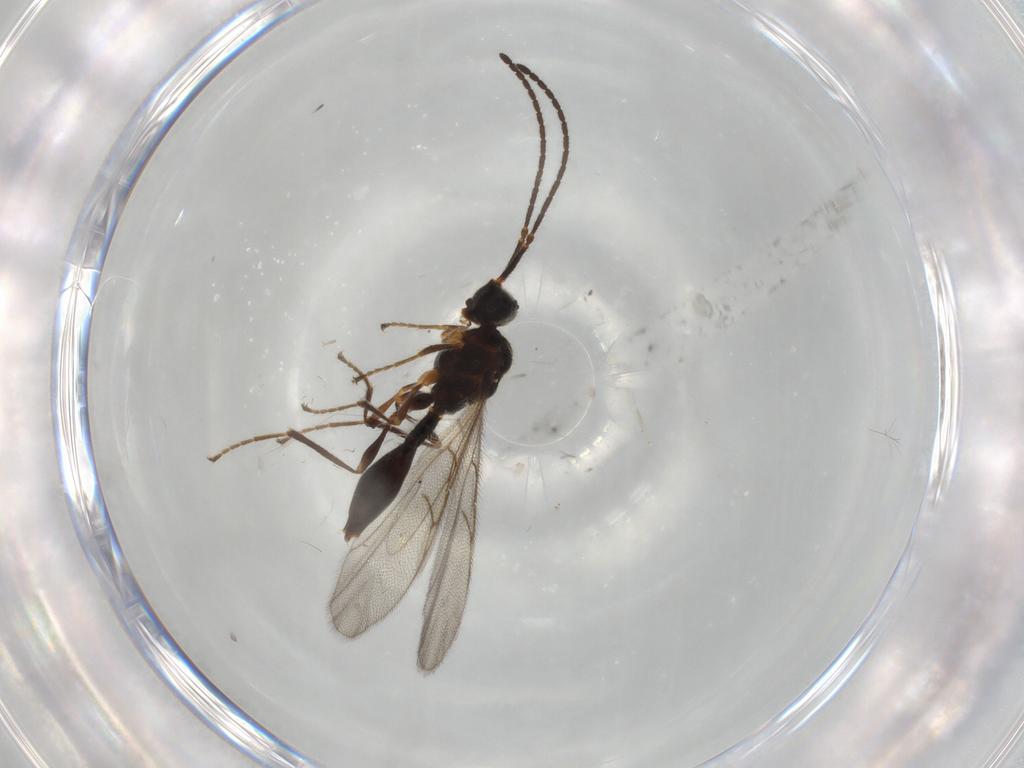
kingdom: Animalia
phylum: Arthropoda
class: Insecta
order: Hymenoptera
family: Diapriidae
